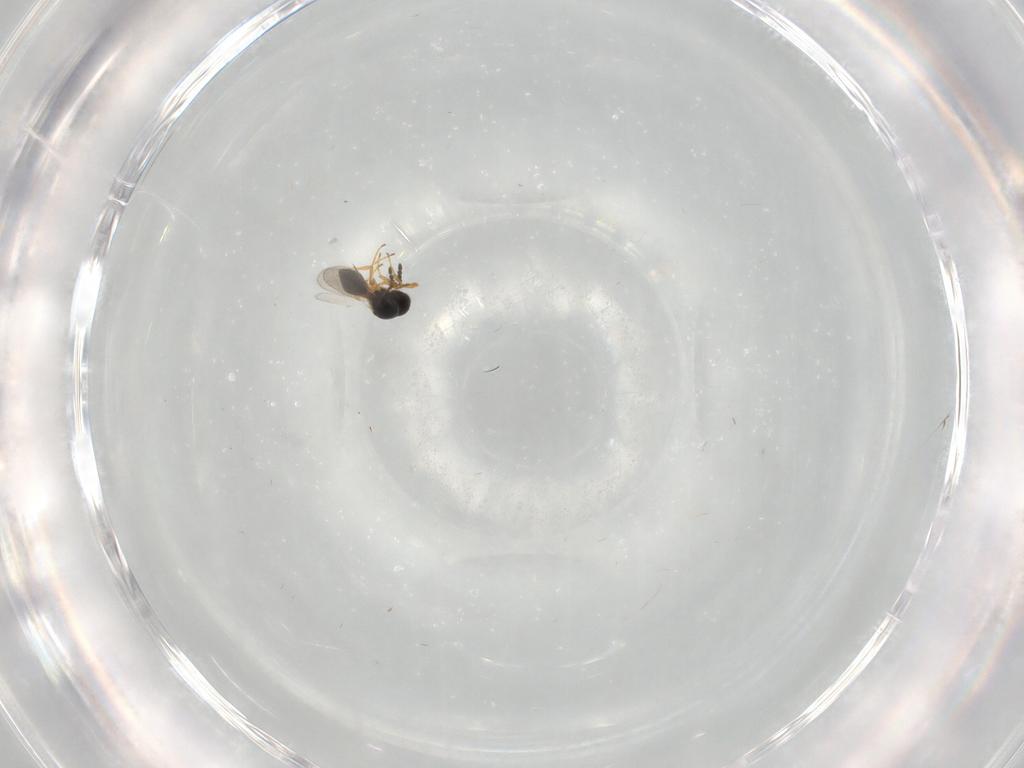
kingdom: Animalia
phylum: Arthropoda
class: Insecta
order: Hymenoptera
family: Platygastridae
